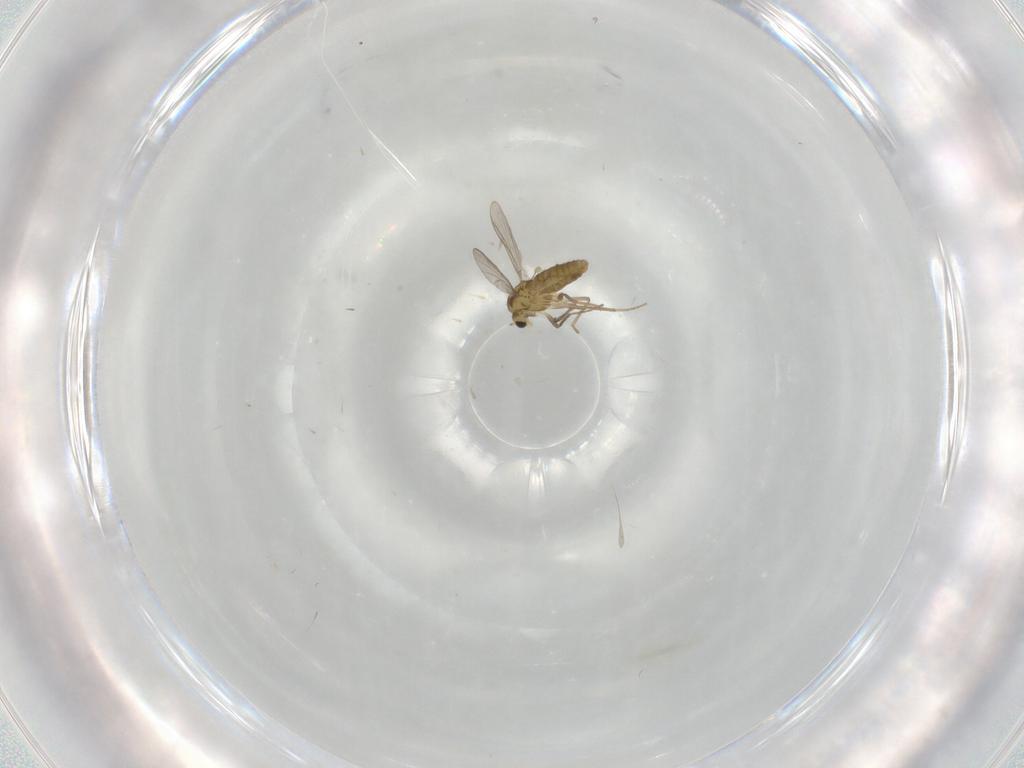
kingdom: Animalia
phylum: Arthropoda
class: Insecta
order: Diptera
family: Chironomidae
